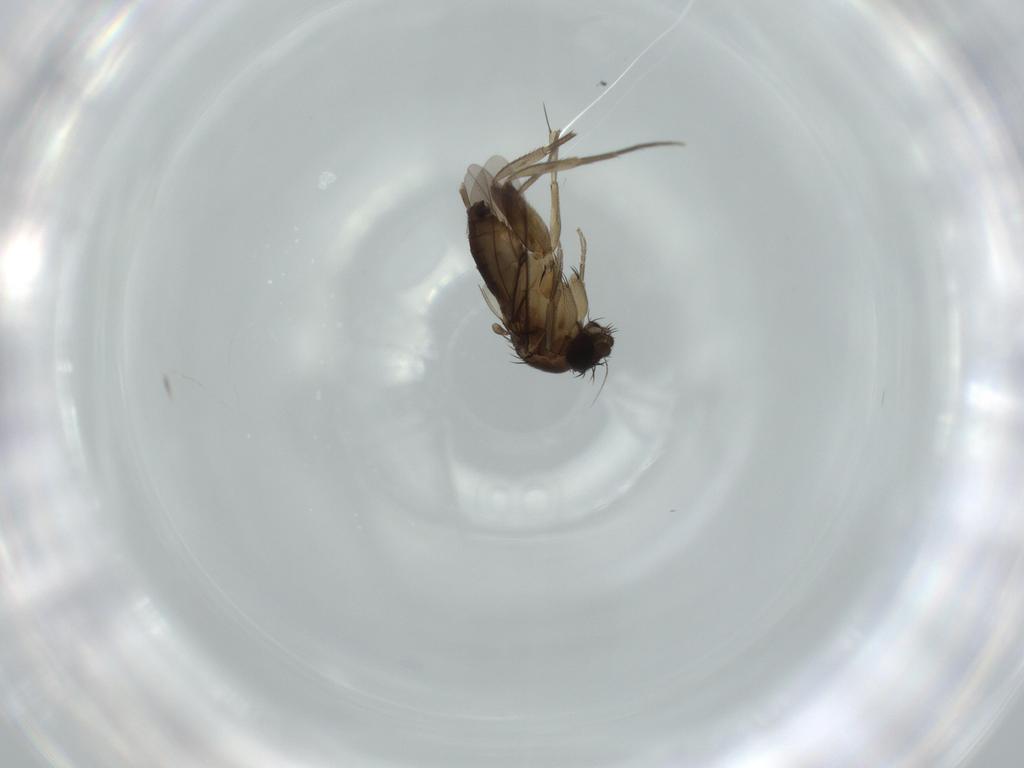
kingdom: Animalia
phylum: Arthropoda
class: Insecta
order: Diptera
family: Phoridae
